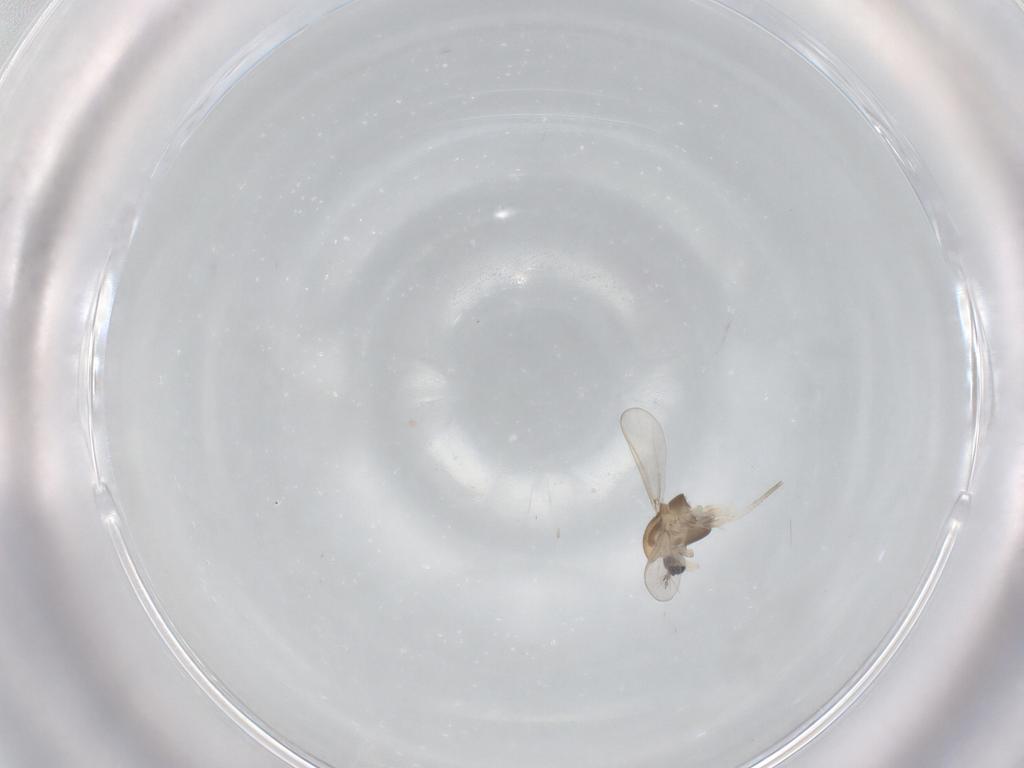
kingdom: Animalia
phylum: Arthropoda
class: Insecta
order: Diptera
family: Chironomidae
